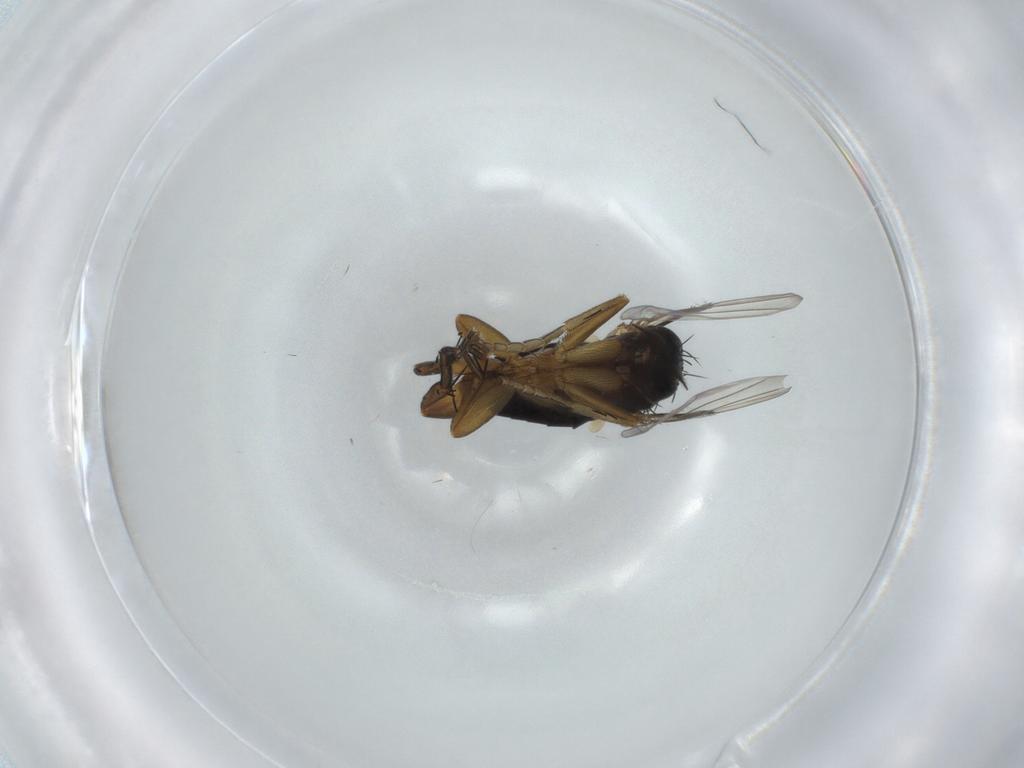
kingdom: Animalia
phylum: Arthropoda
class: Insecta
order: Diptera
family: Phoridae
